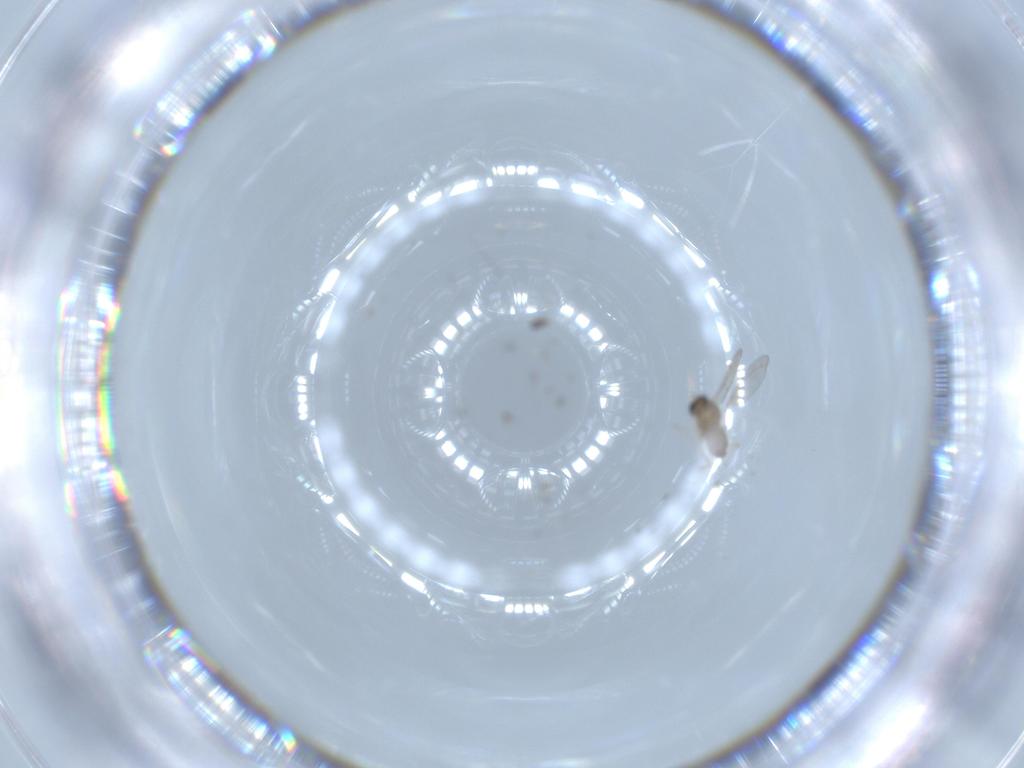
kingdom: Animalia
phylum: Arthropoda
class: Insecta
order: Diptera
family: Cecidomyiidae
